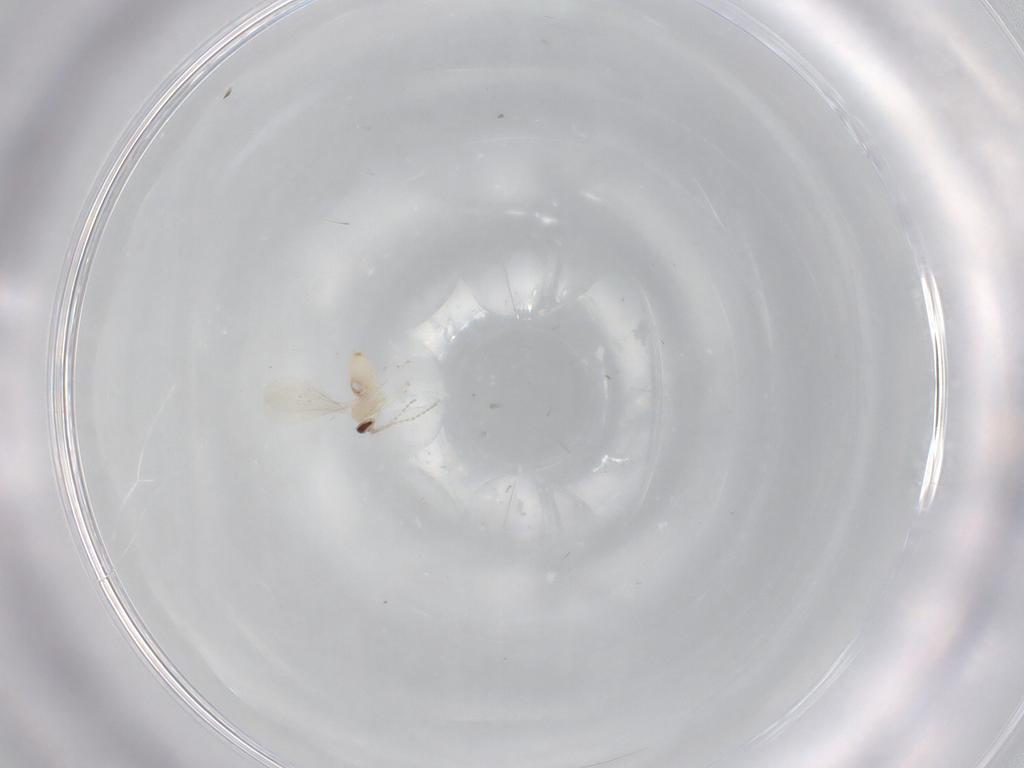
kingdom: Animalia
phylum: Arthropoda
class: Insecta
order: Diptera
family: Cecidomyiidae
